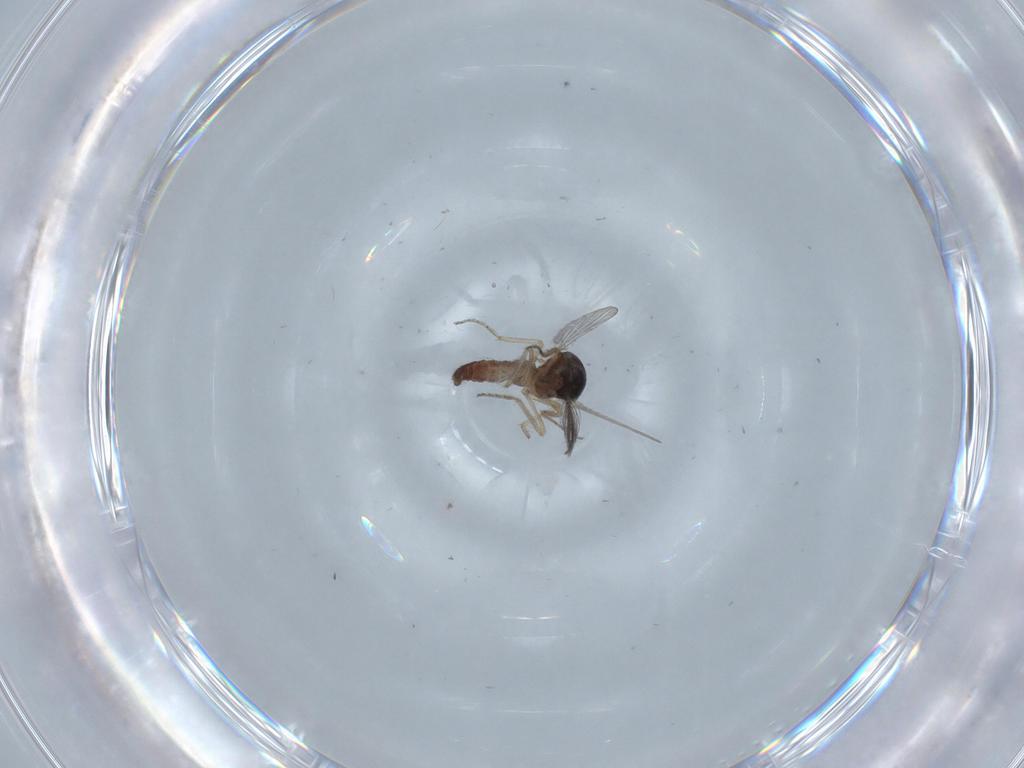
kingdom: Animalia
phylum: Arthropoda
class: Insecta
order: Diptera
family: Ceratopogonidae
